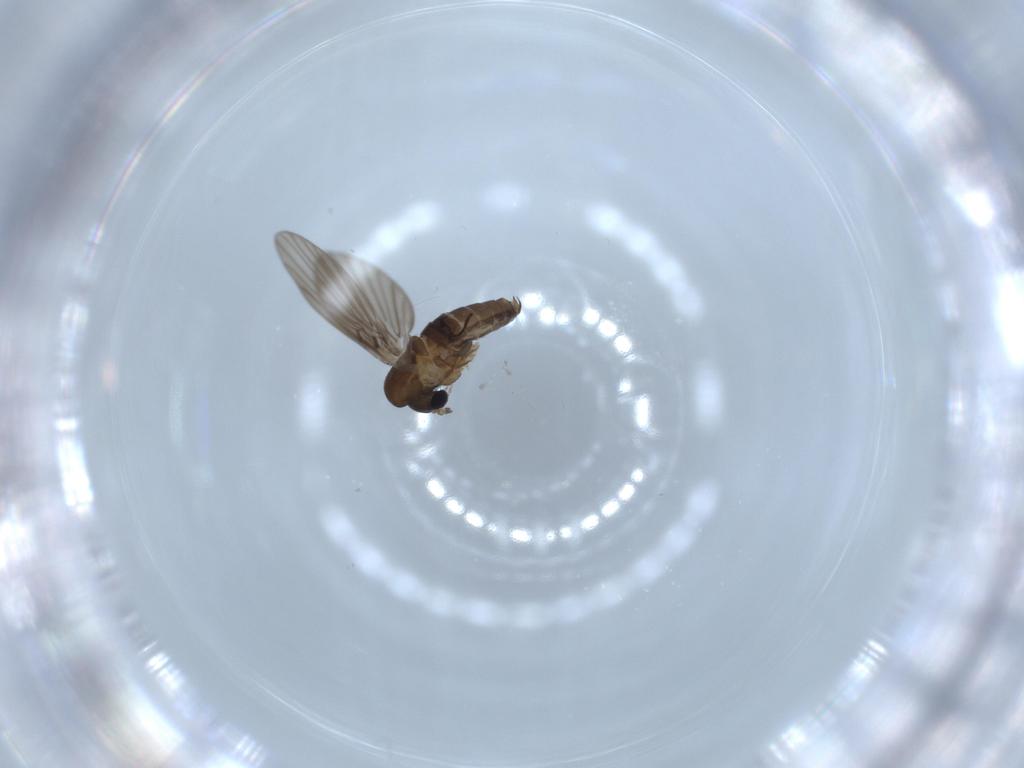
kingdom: Animalia
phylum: Arthropoda
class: Insecta
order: Diptera
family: Psychodidae
